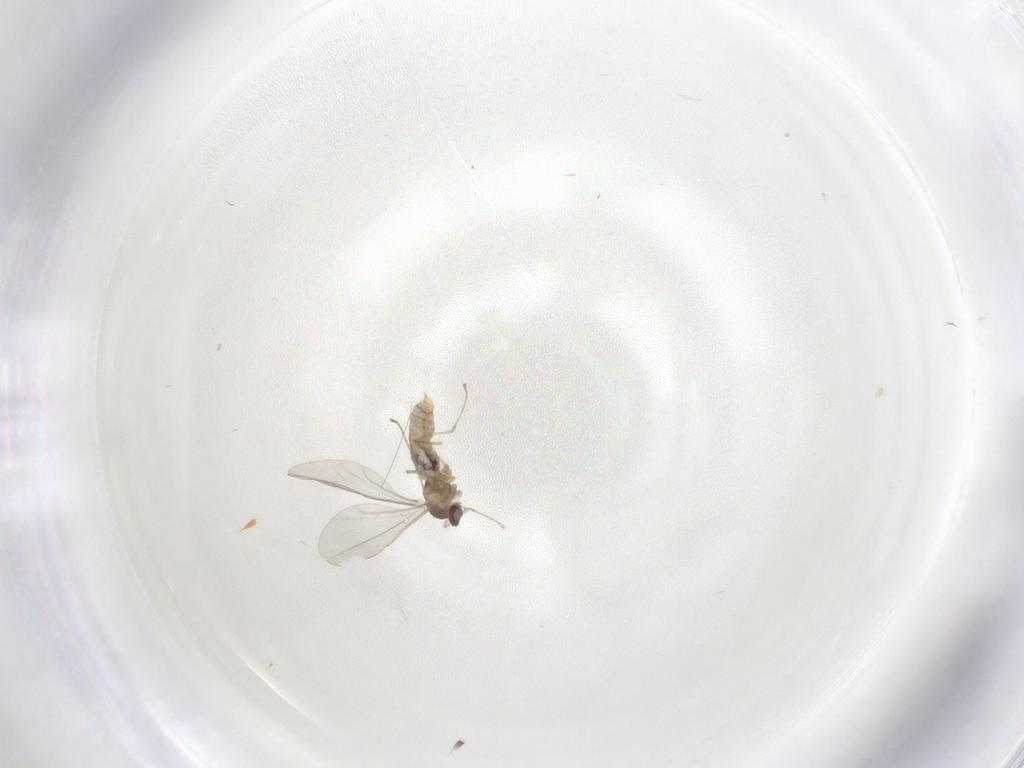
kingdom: Animalia
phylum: Arthropoda
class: Insecta
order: Diptera
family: Cecidomyiidae
